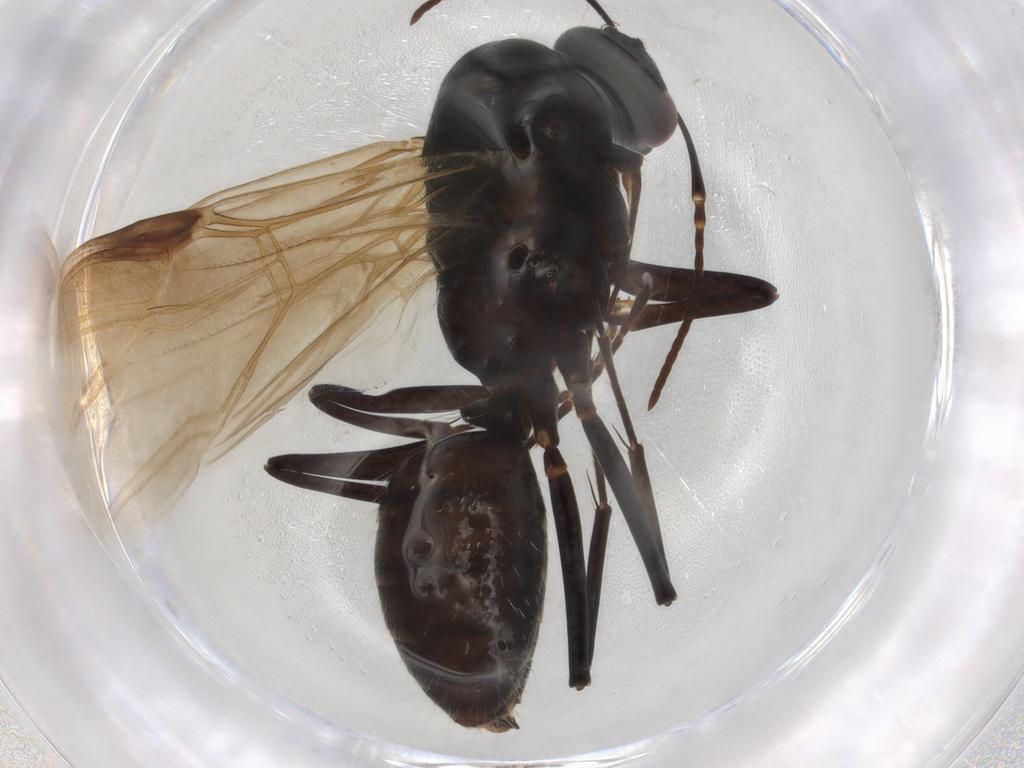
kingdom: Animalia
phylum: Arthropoda
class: Insecta
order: Hymenoptera
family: Formicidae
